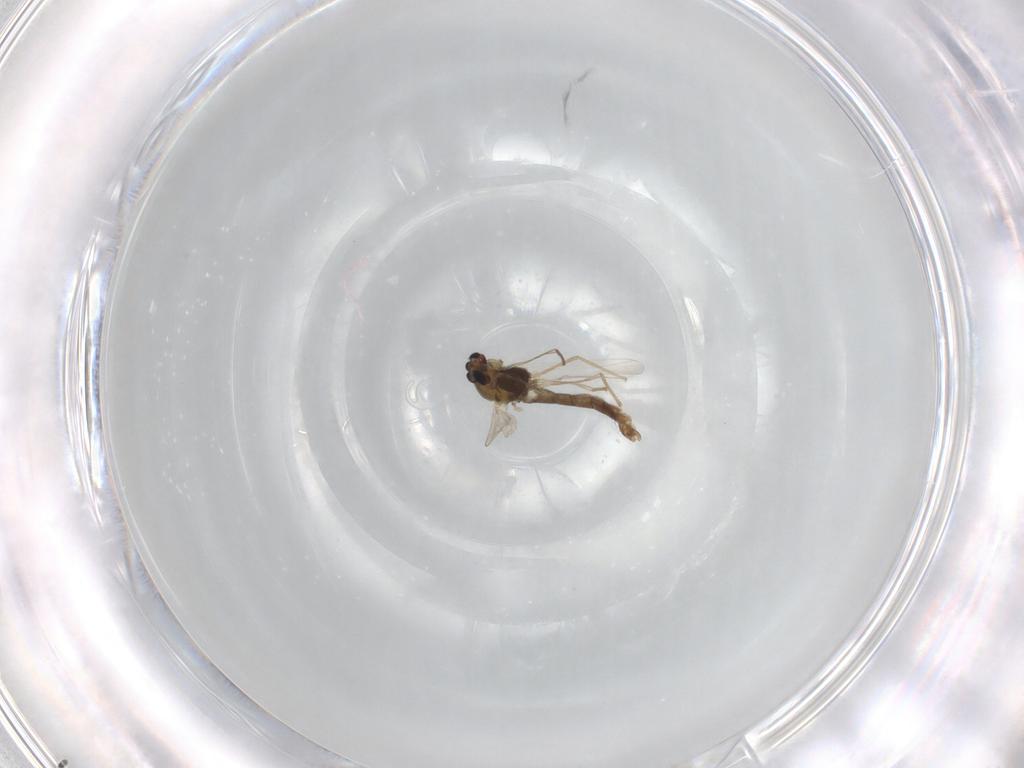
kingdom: Animalia
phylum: Arthropoda
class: Insecta
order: Diptera
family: Chironomidae
